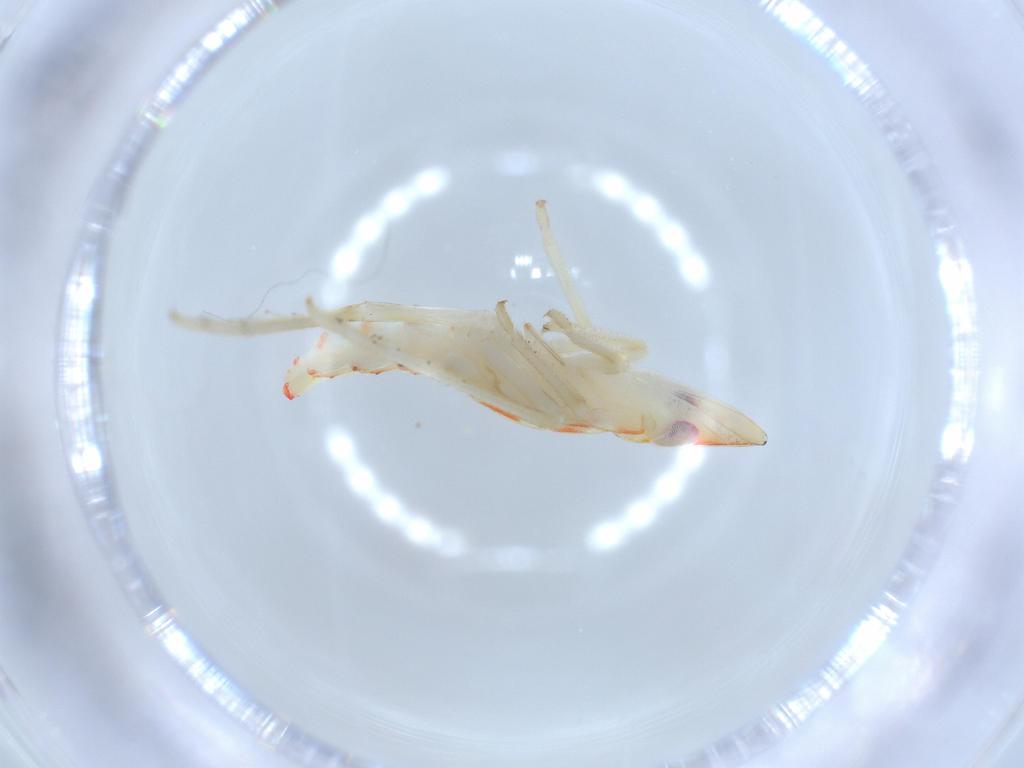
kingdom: Animalia
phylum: Arthropoda
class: Insecta
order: Hemiptera
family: Tropiduchidae
